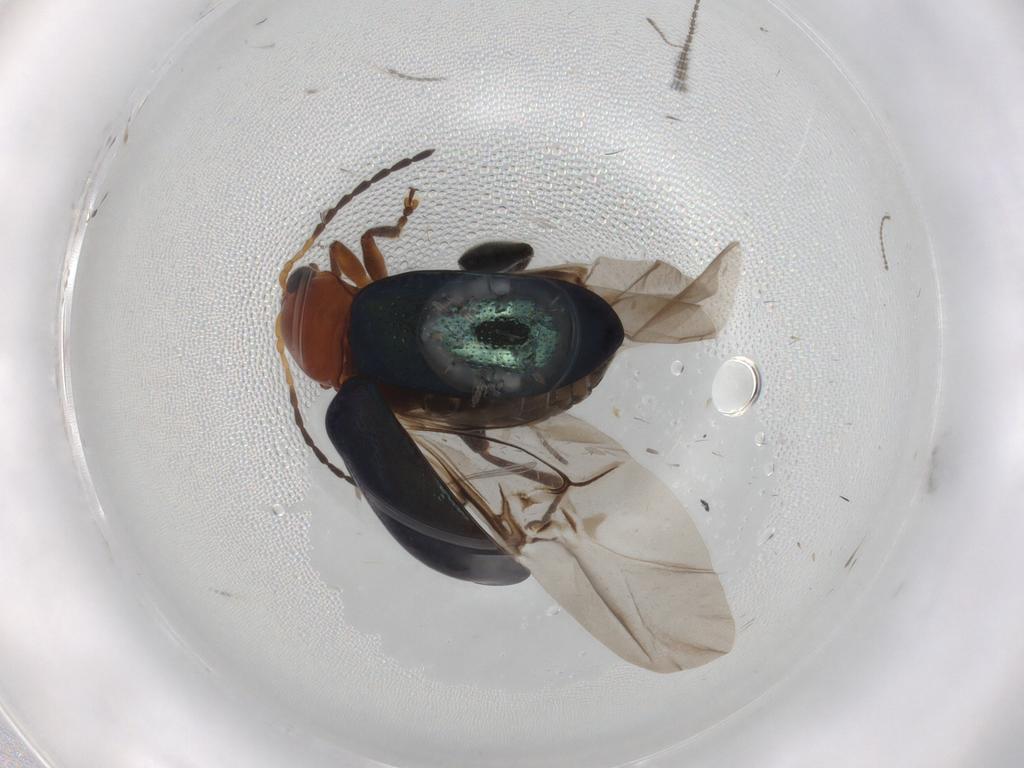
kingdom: Animalia
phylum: Arthropoda
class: Insecta
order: Coleoptera
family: Chrysomelidae
